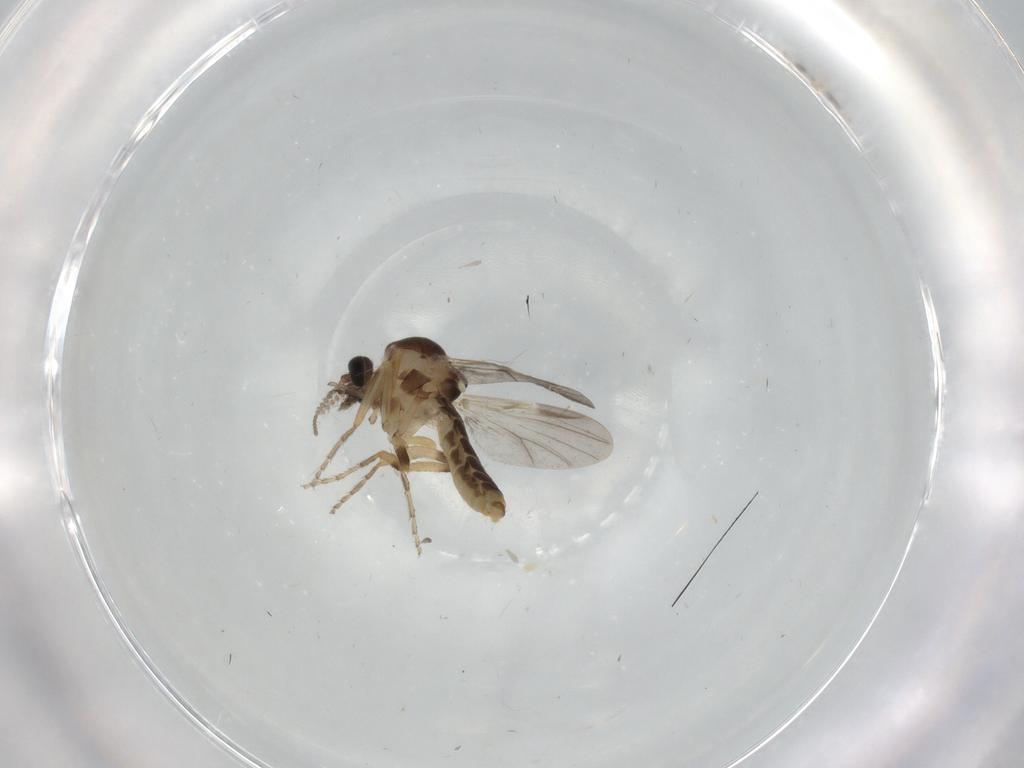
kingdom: Animalia
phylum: Arthropoda
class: Insecta
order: Diptera
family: Ceratopogonidae
